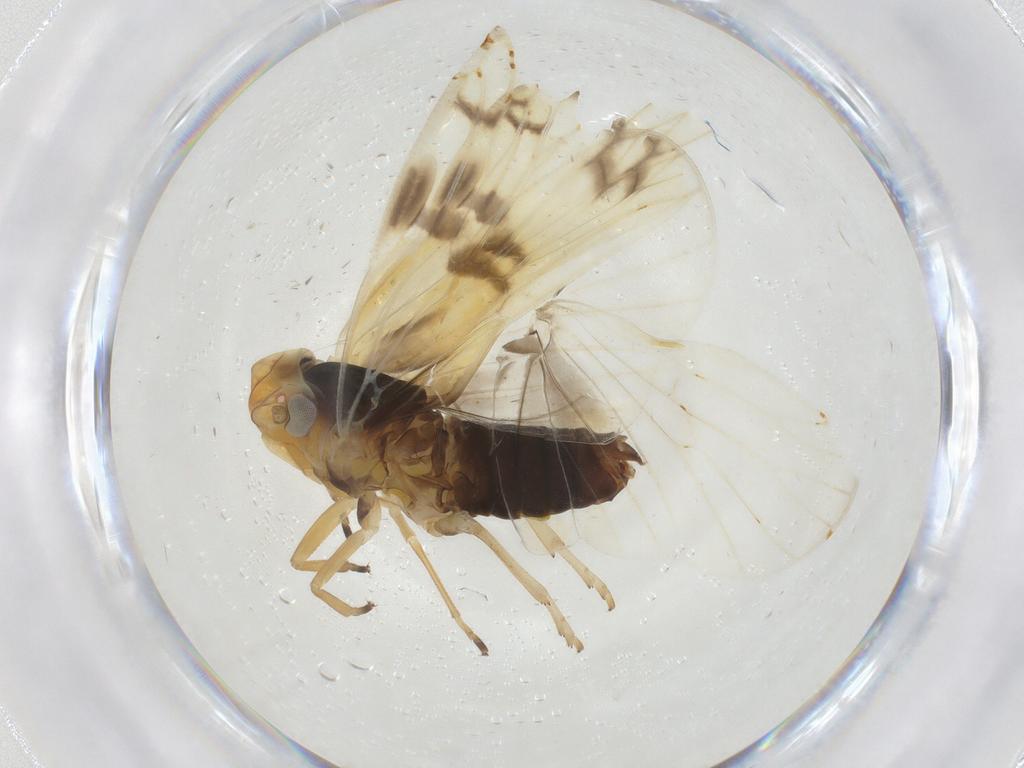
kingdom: Animalia
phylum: Arthropoda
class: Insecta
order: Hemiptera
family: Cixiidae
